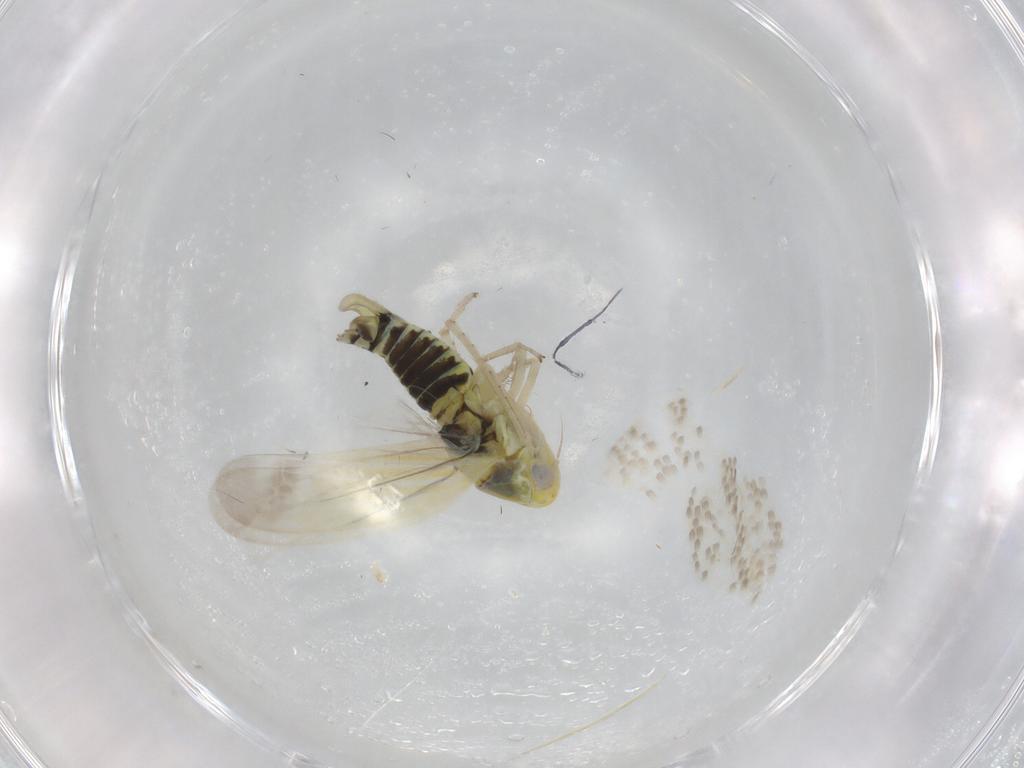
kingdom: Animalia
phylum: Arthropoda
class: Insecta
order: Hemiptera
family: Cicadellidae
